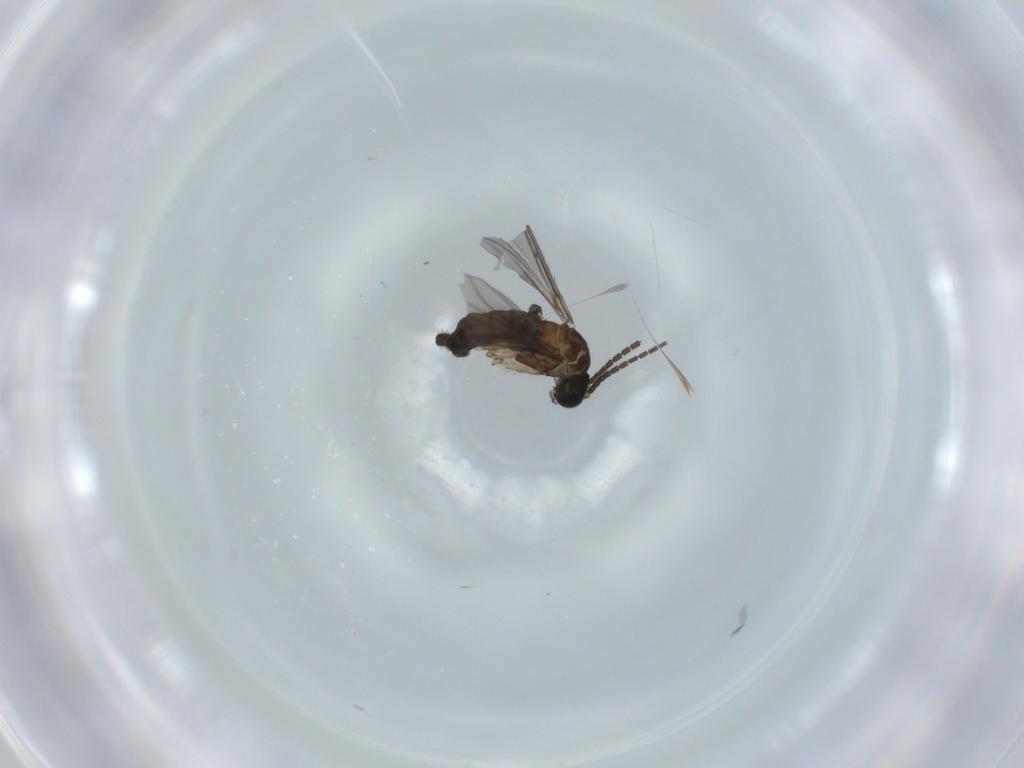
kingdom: Animalia
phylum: Arthropoda
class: Insecta
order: Diptera
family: Sciaridae
